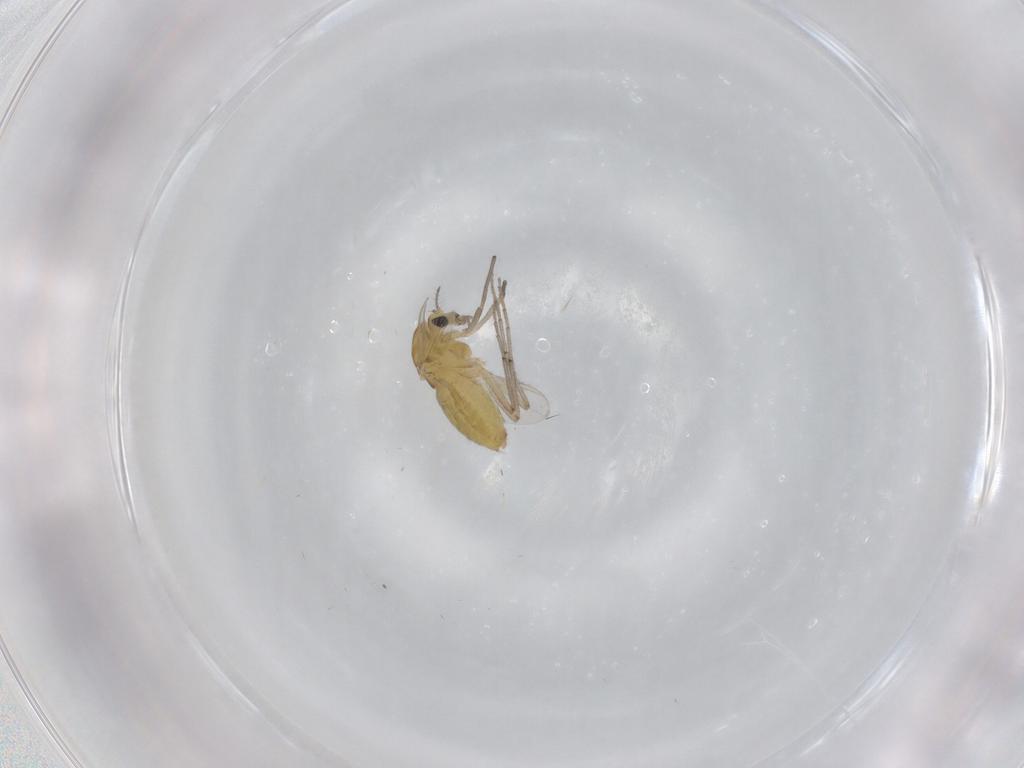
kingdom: Animalia
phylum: Arthropoda
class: Insecta
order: Diptera
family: Chironomidae
